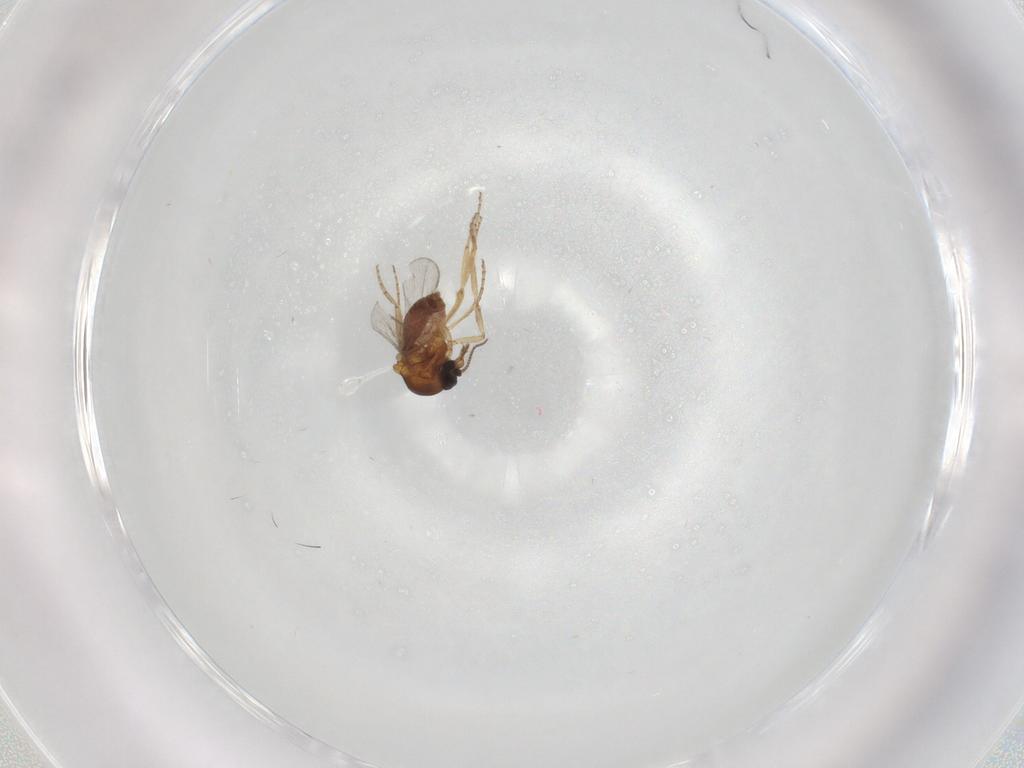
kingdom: Animalia
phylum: Arthropoda
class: Insecta
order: Diptera
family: Ceratopogonidae
